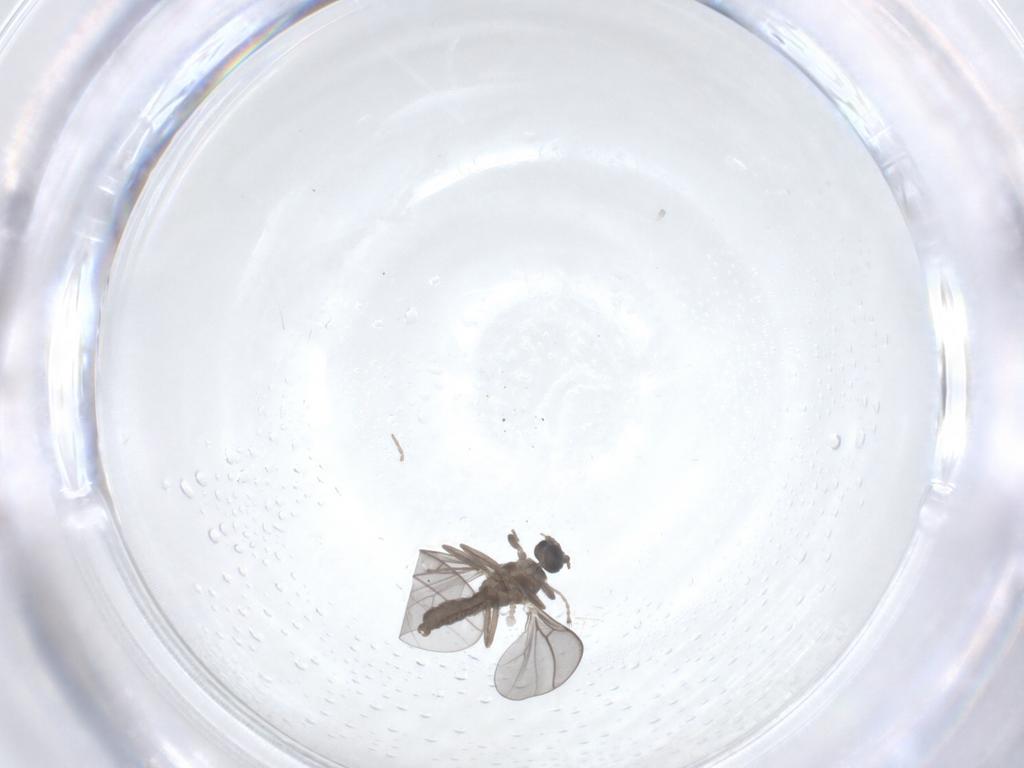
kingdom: Animalia
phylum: Arthropoda
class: Insecta
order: Diptera
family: Cecidomyiidae
